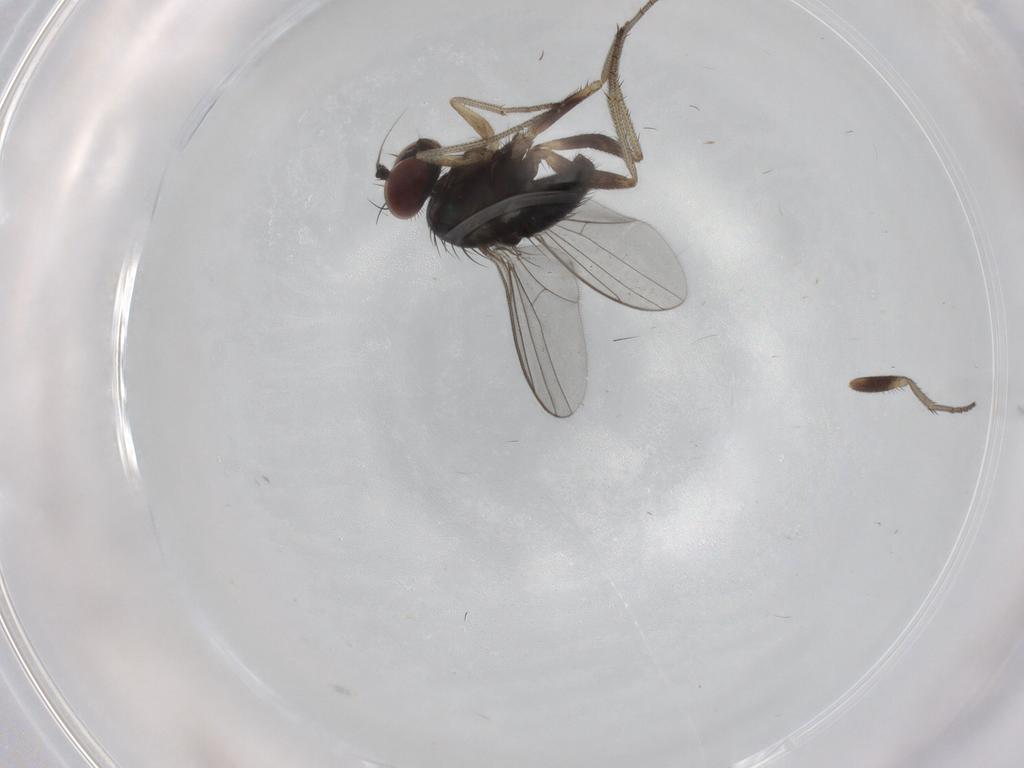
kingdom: Animalia
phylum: Arthropoda
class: Insecta
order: Diptera
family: Dolichopodidae
